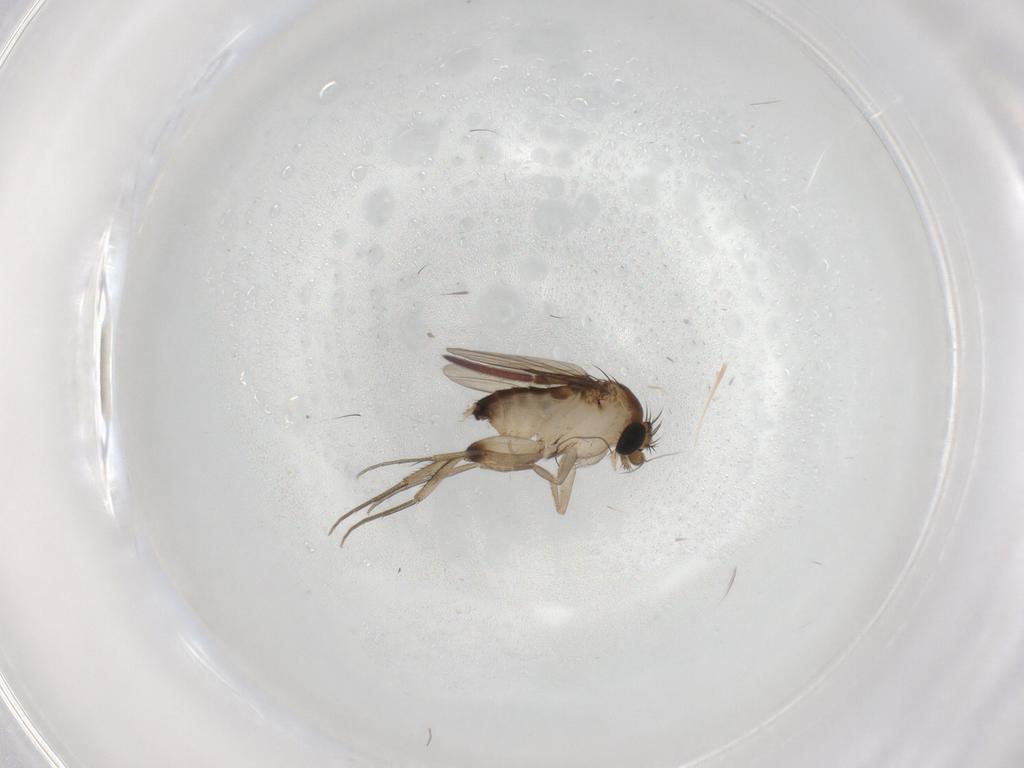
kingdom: Animalia
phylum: Arthropoda
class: Insecta
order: Diptera
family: Phoridae
